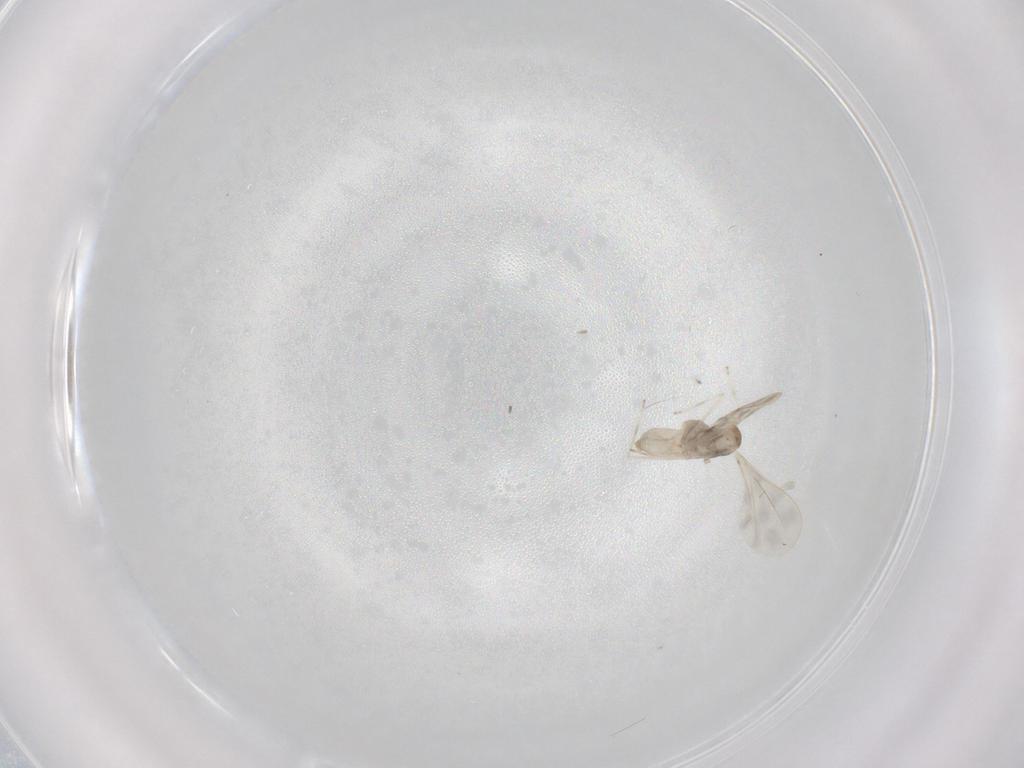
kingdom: Animalia
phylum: Arthropoda
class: Insecta
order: Diptera
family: Cecidomyiidae
